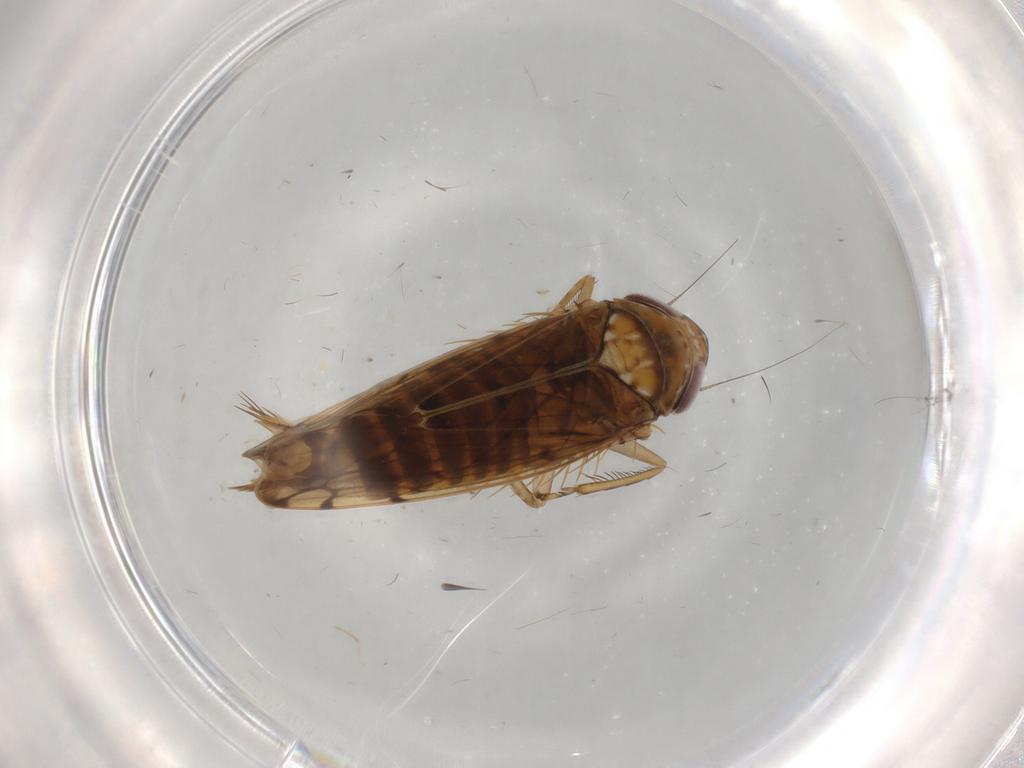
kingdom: Animalia
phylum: Arthropoda
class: Insecta
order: Hemiptera
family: Cicadellidae
